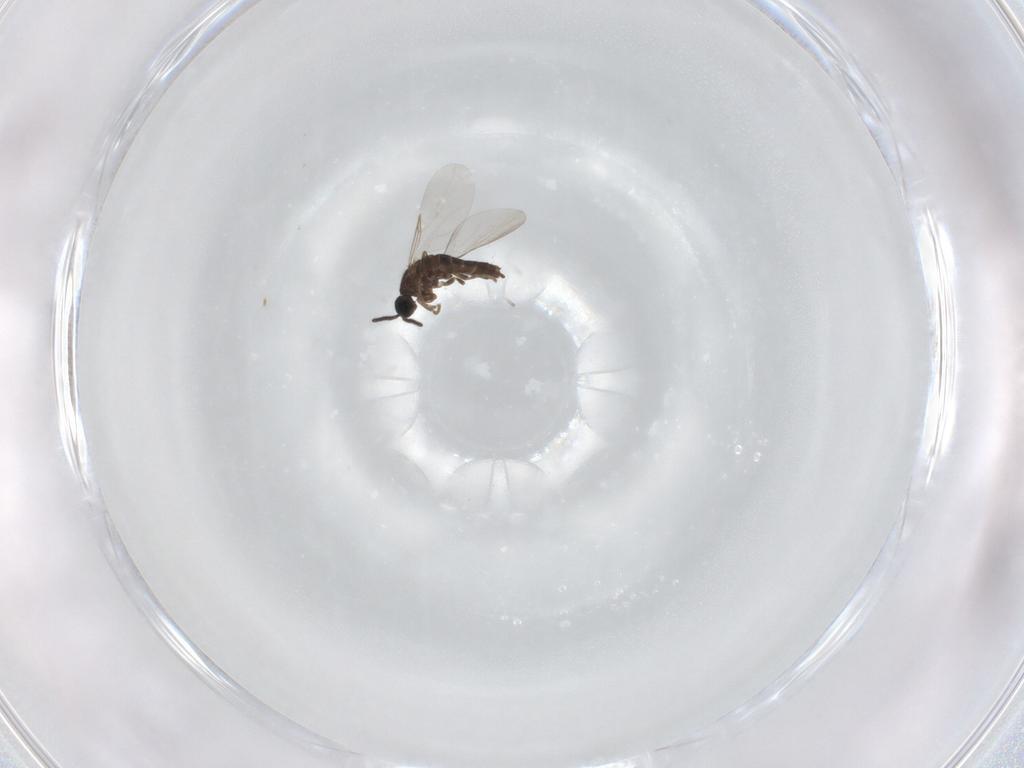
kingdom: Animalia
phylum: Arthropoda
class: Insecta
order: Diptera
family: Scatopsidae
